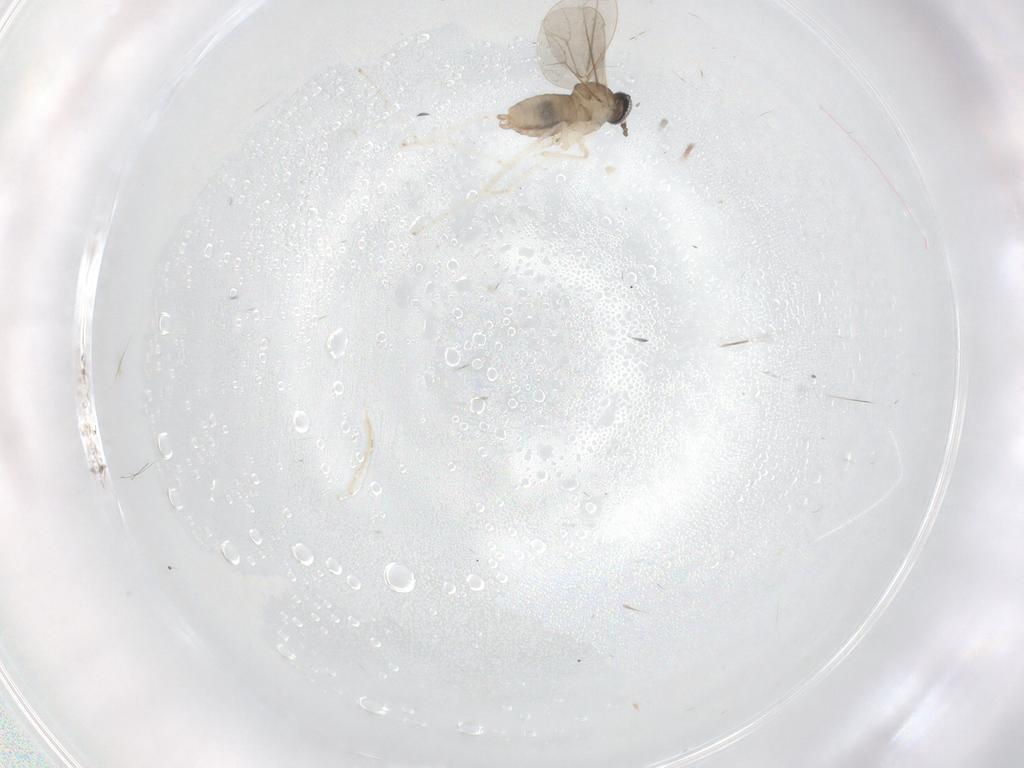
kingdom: Animalia
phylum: Arthropoda
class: Insecta
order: Diptera
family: Cecidomyiidae
